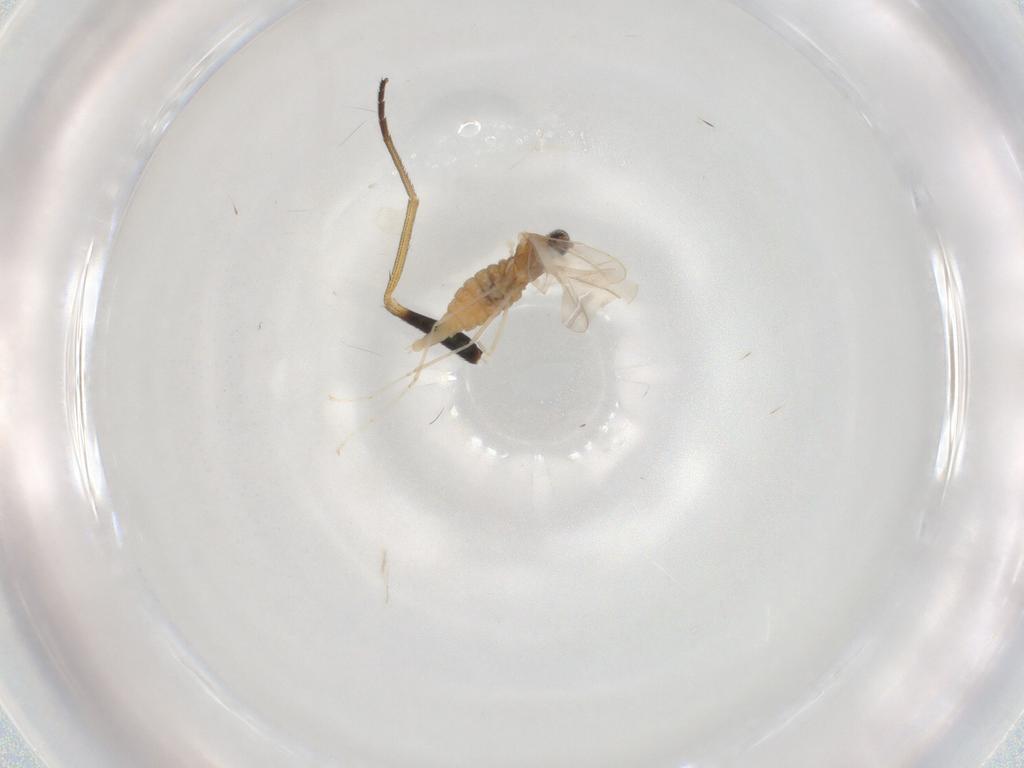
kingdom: Animalia
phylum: Arthropoda
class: Insecta
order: Diptera
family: Cecidomyiidae
